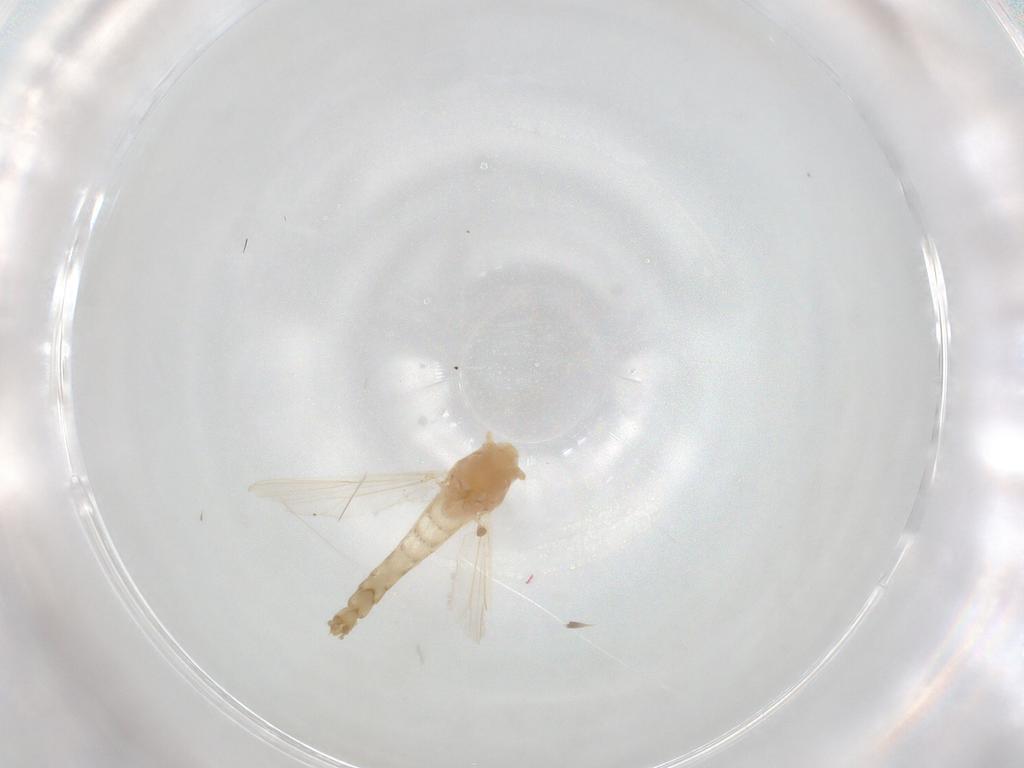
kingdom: Animalia
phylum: Arthropoda
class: Insecta
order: Diptera
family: Chironomidae
